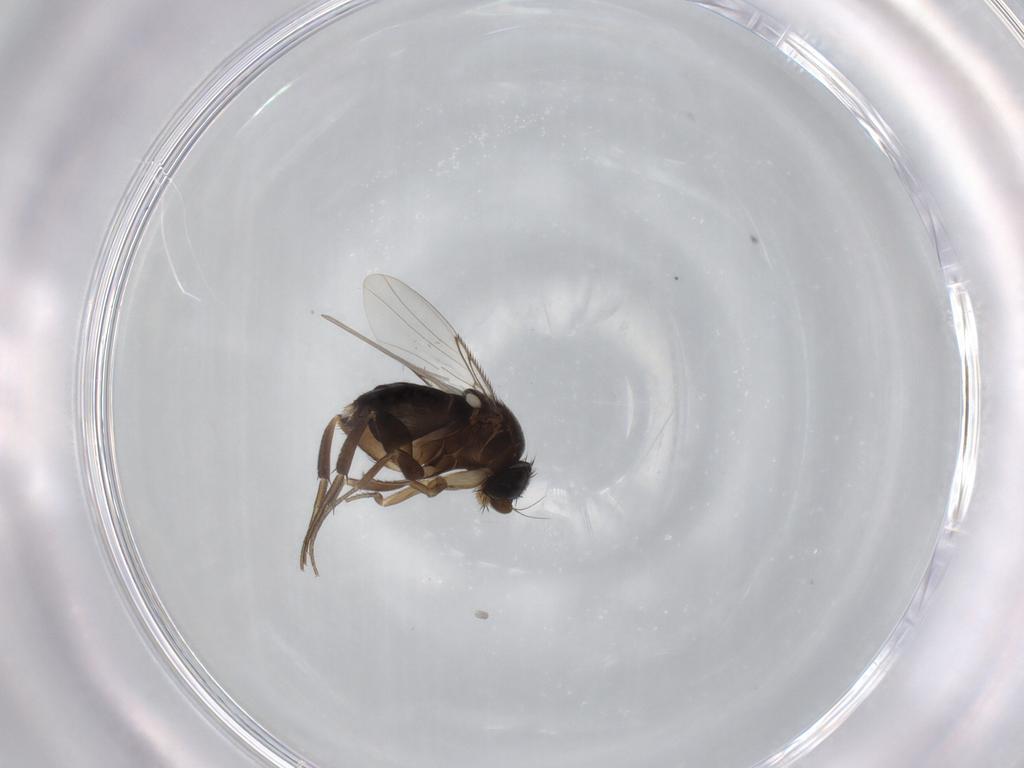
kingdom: Animalia
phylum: Arthropoda
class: Insecta
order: Diptera
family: Phoridae
